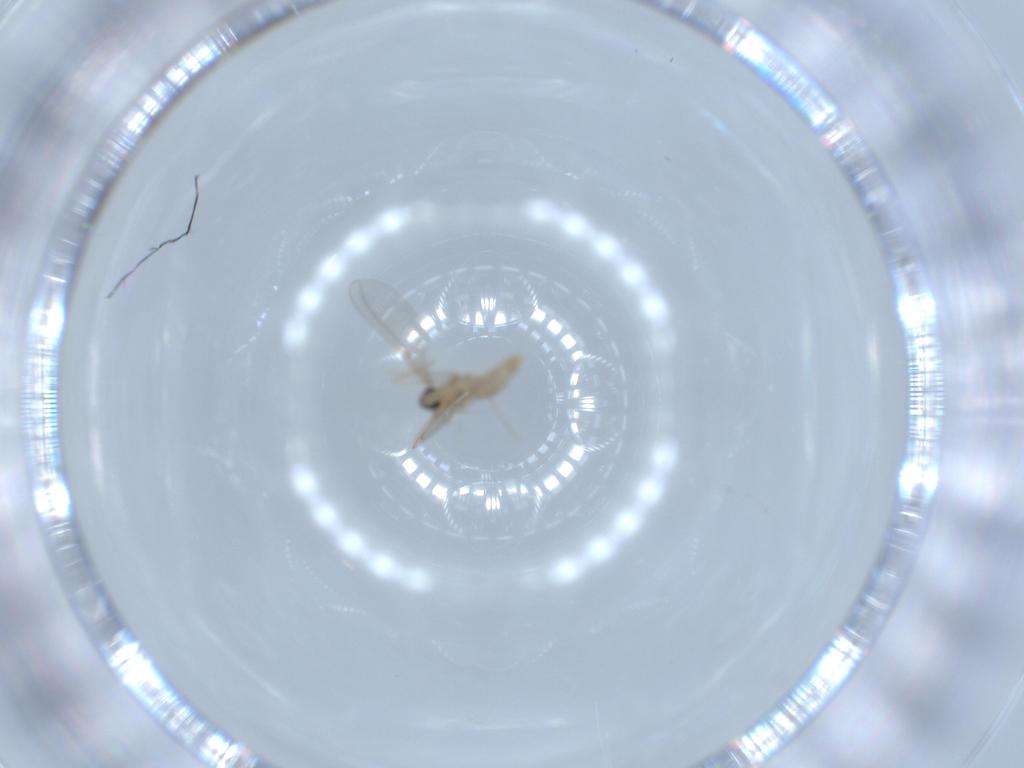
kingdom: Animalia
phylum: Arthropoda
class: Insecta
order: Diptera
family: Cecidomyiidae
